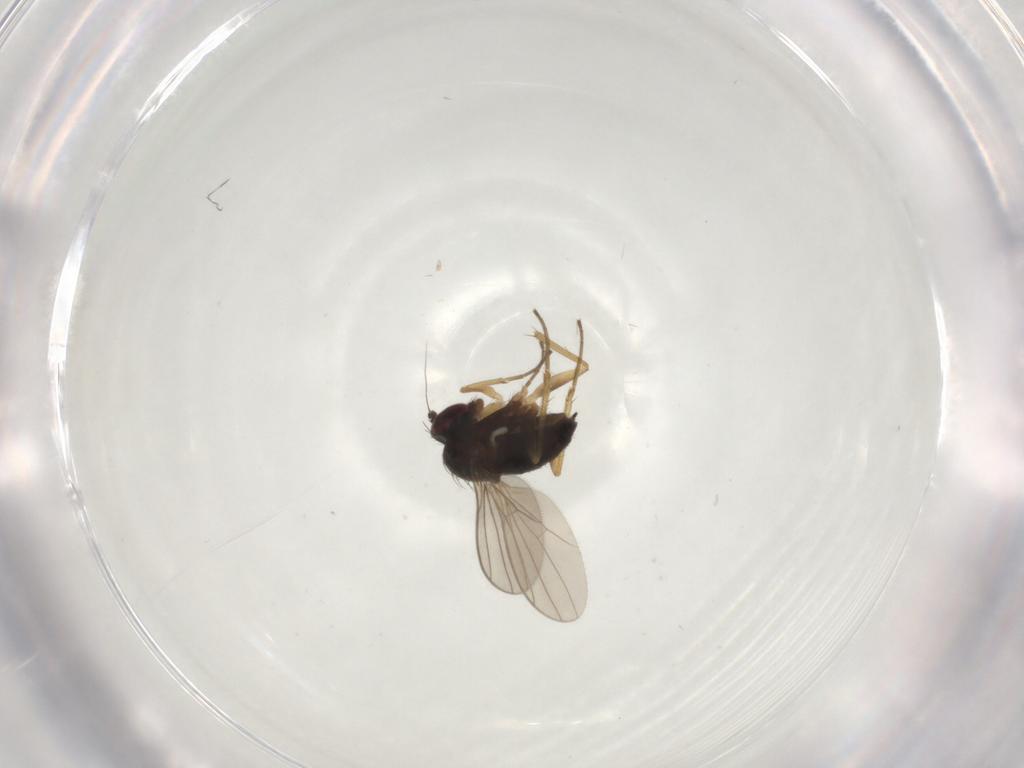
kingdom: Animalia
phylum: Arthropoda
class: Insecta
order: Diptera
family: Dolichopodidae
